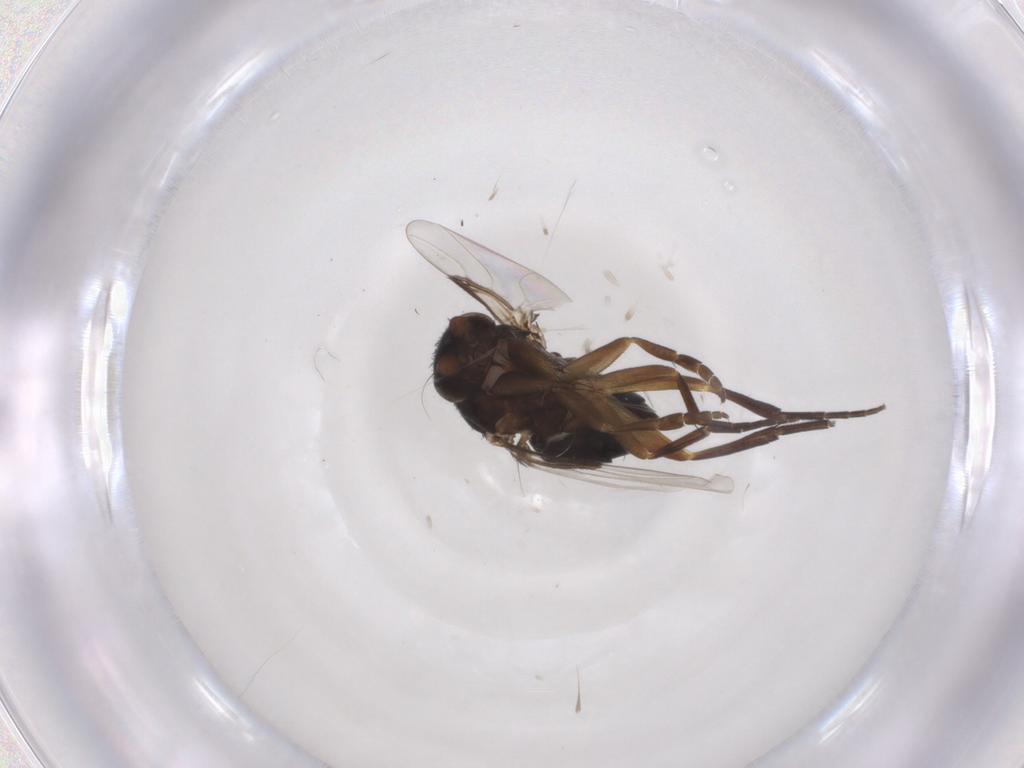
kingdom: Animalia
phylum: Arthropoda
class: Insecta
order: Diptera
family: Phoridae
